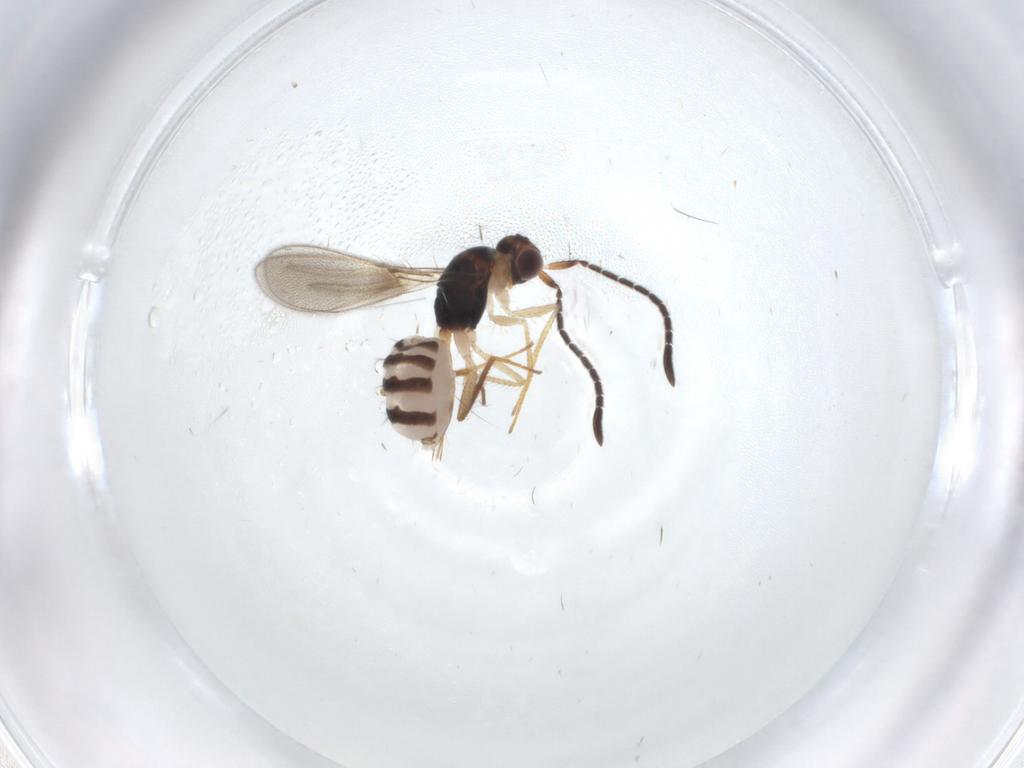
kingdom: Animalia
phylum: Arthropoda
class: Insecta
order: Hymenoptera
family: Mymaridae
